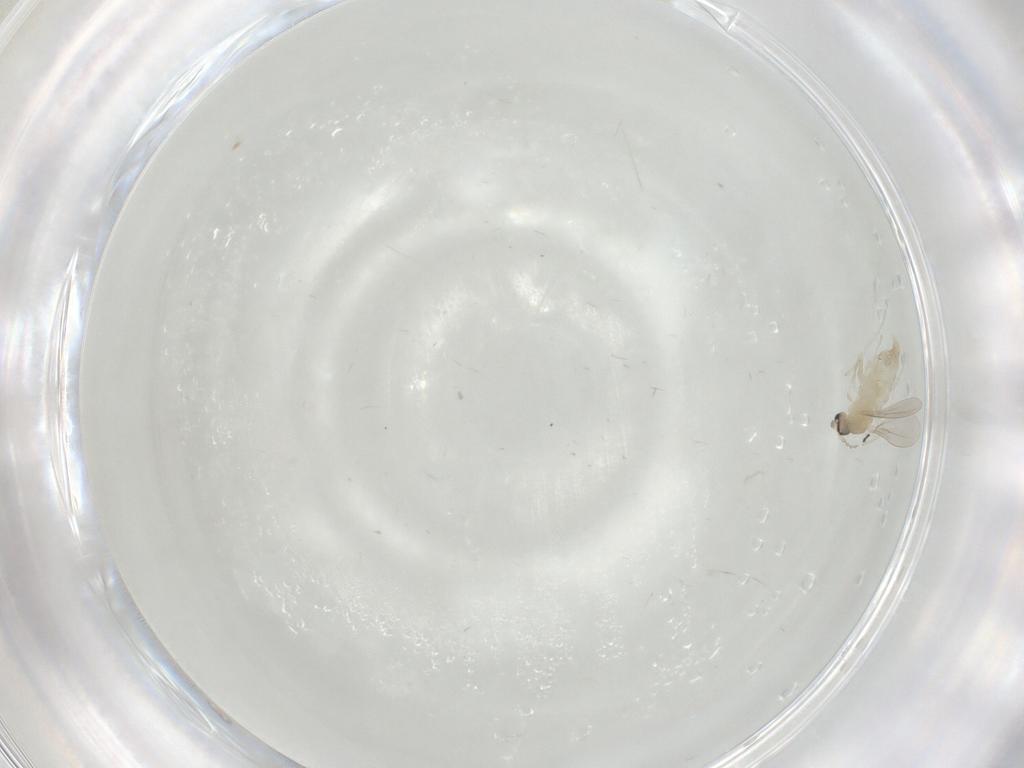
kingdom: Animalia
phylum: Arthropoda
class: Insecta
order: Diptera
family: Cecidomyiidae
